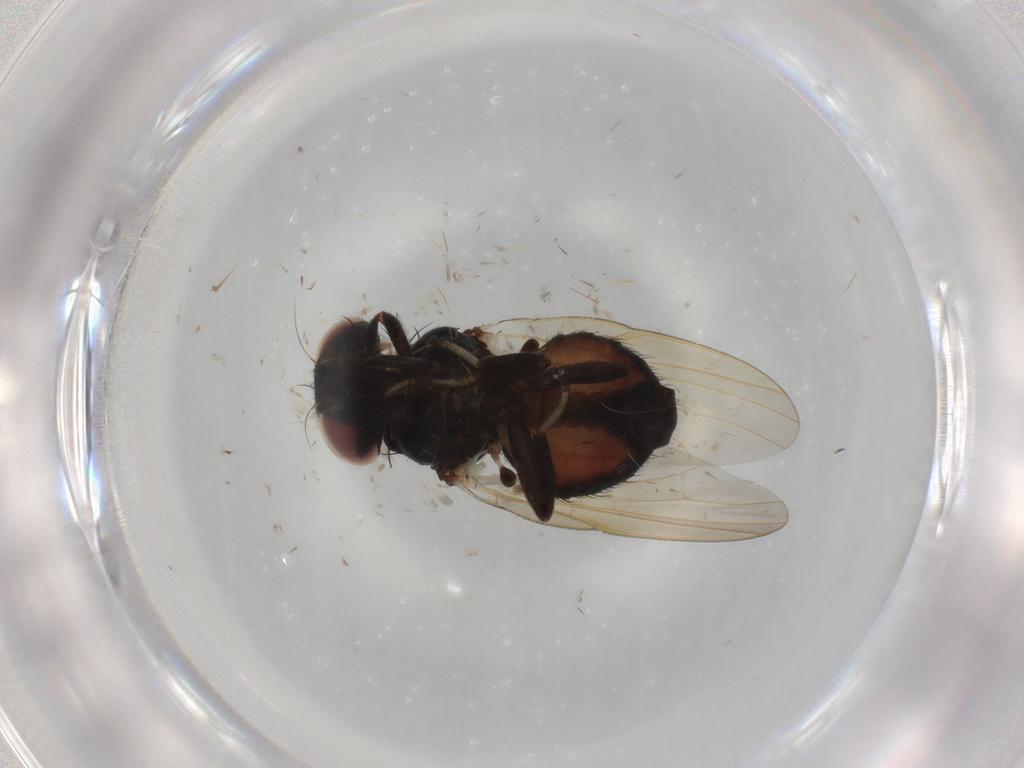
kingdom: Animalia
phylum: Arthropoda
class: Insecta
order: Diptera
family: Lonchaeidae
